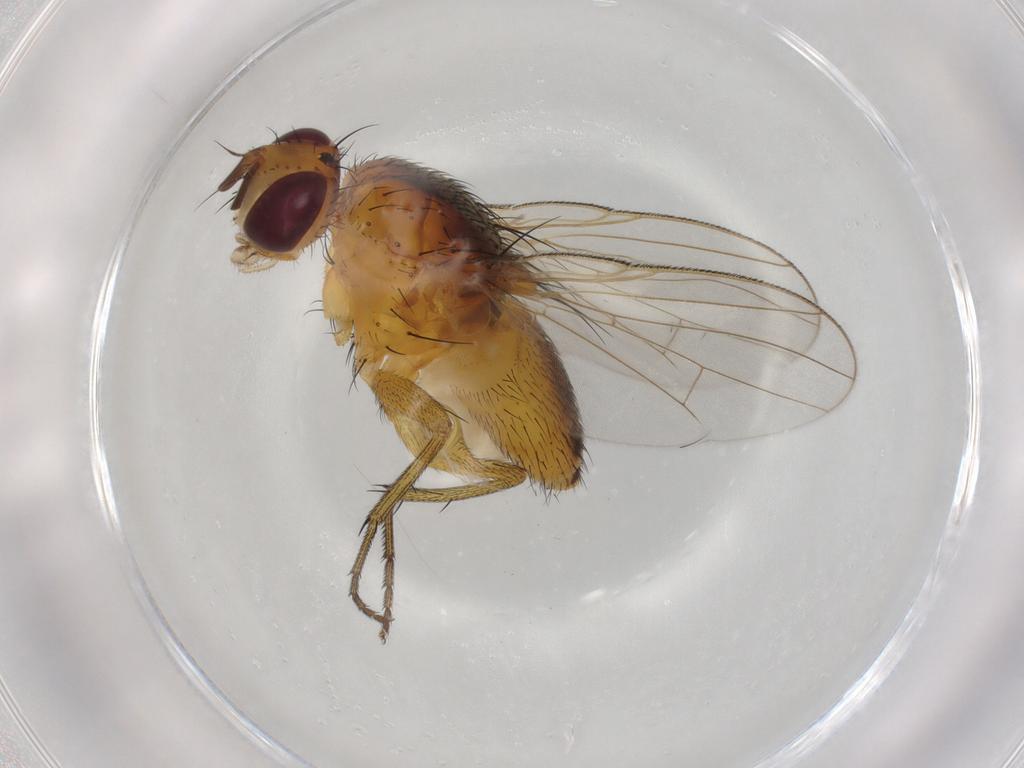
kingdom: Animalia
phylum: Arthropoda
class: Insecta
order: Diptera
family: Muscidae
